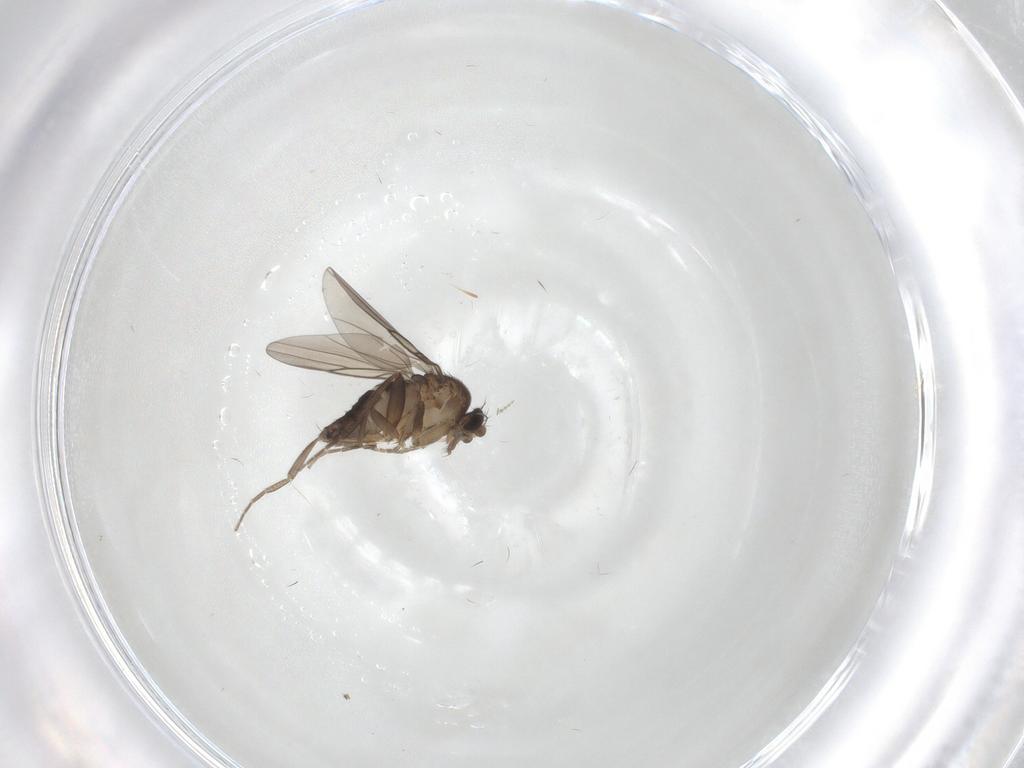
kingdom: Animalia
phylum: Arthropoda
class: Insecta
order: Diptera
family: Phoridae
